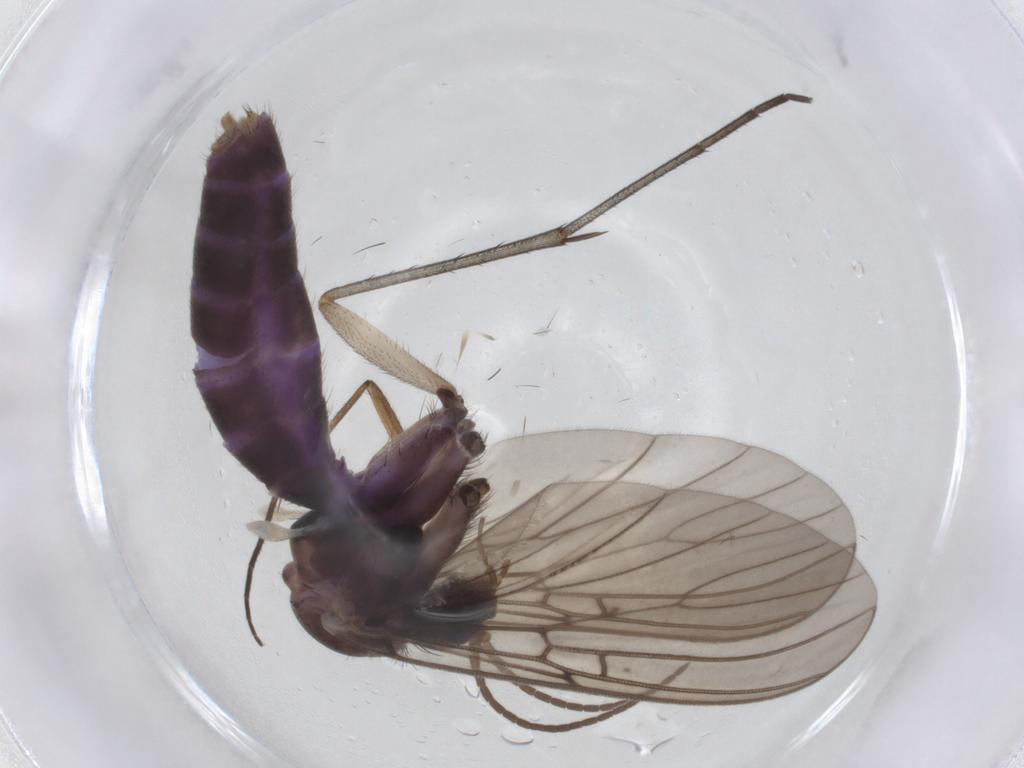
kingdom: Animalia
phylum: Arthropoda
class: Insecta
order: Diptera
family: Mycetophilidae
